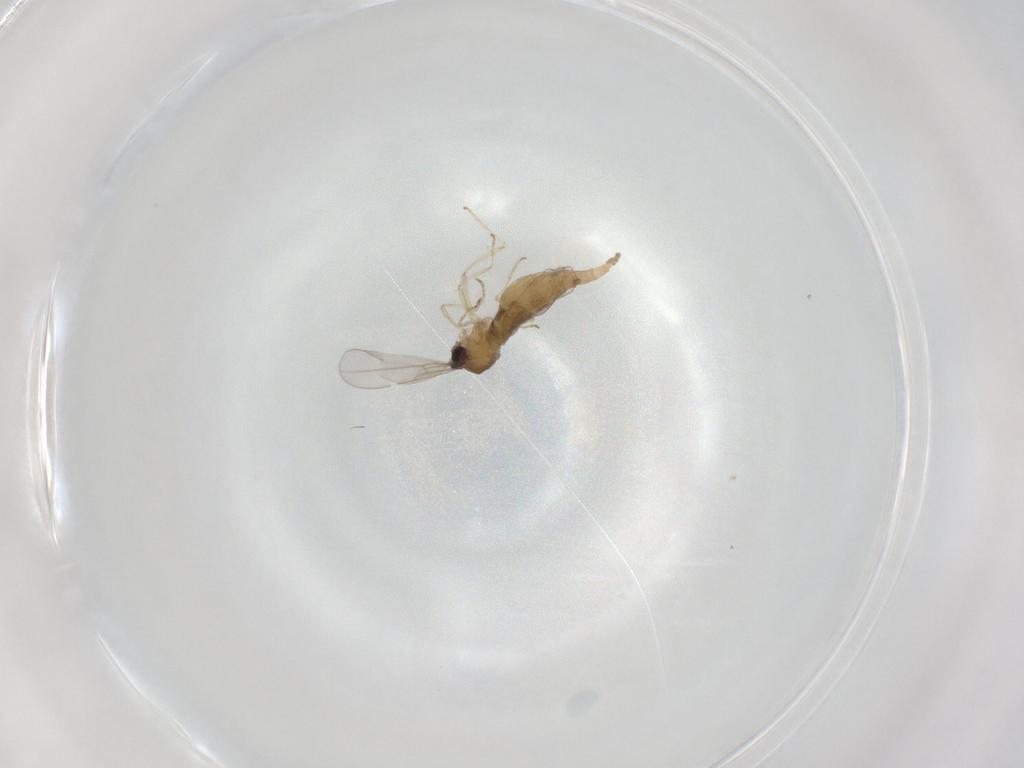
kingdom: Animalia
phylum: Arthropoda
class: Insecta
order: Diptera
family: Cecidomyiidae
